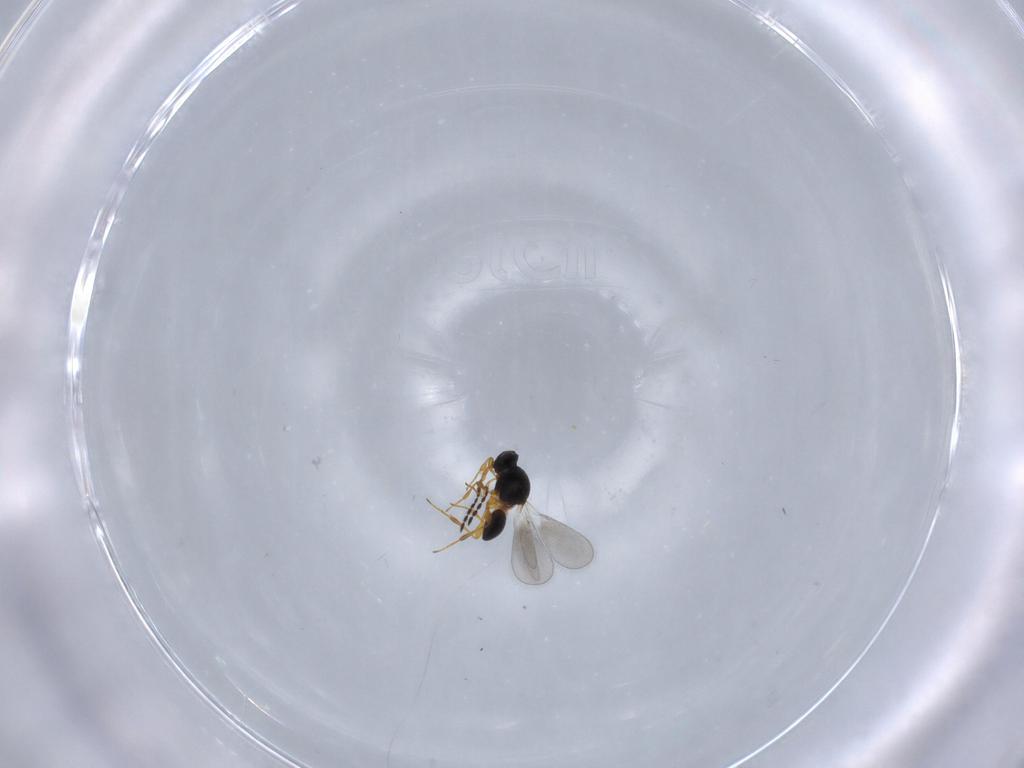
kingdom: Animalia
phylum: Arthropoda
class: Insecta
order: Hymenoptera
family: Platygastridae
